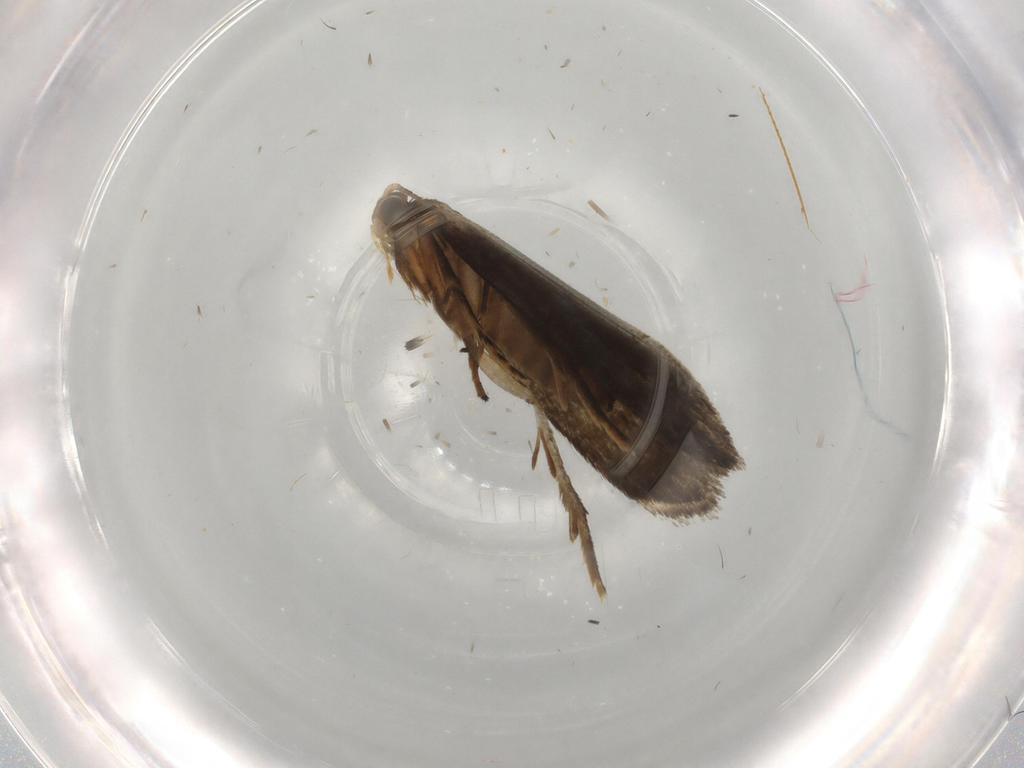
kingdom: Animalia
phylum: Arthropoda
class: Insecta
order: Lepidoptera
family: Crambidae
